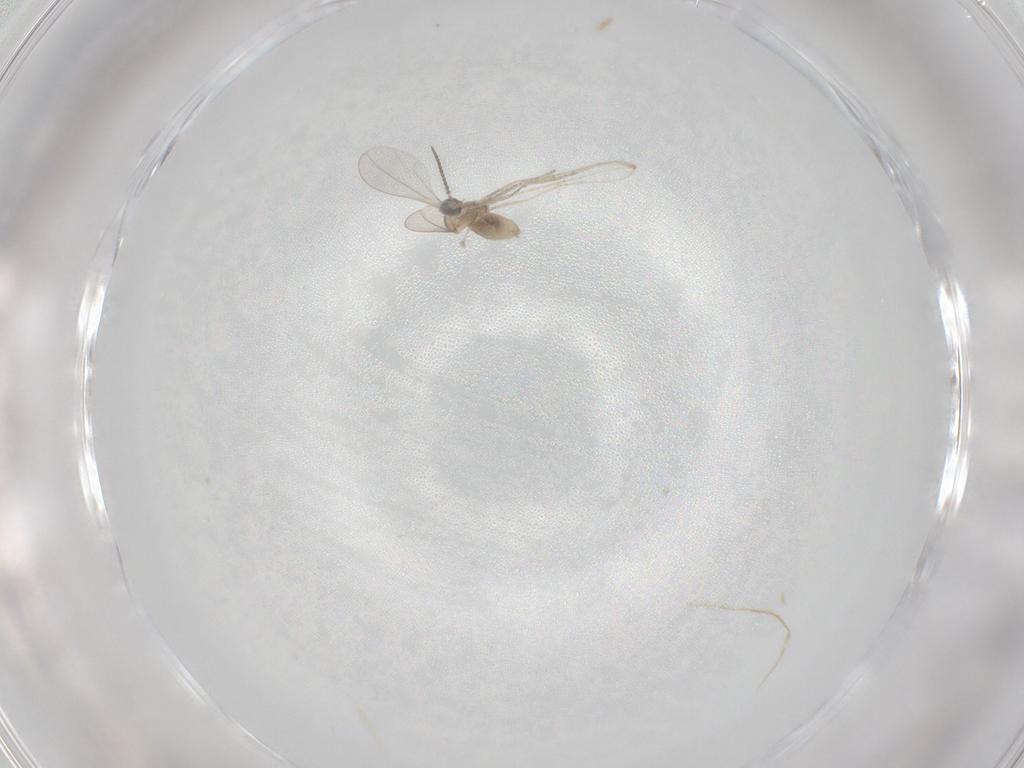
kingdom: Animalia
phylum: Arthropoda
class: Insecta
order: Diptera
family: Cecidomyiidae
